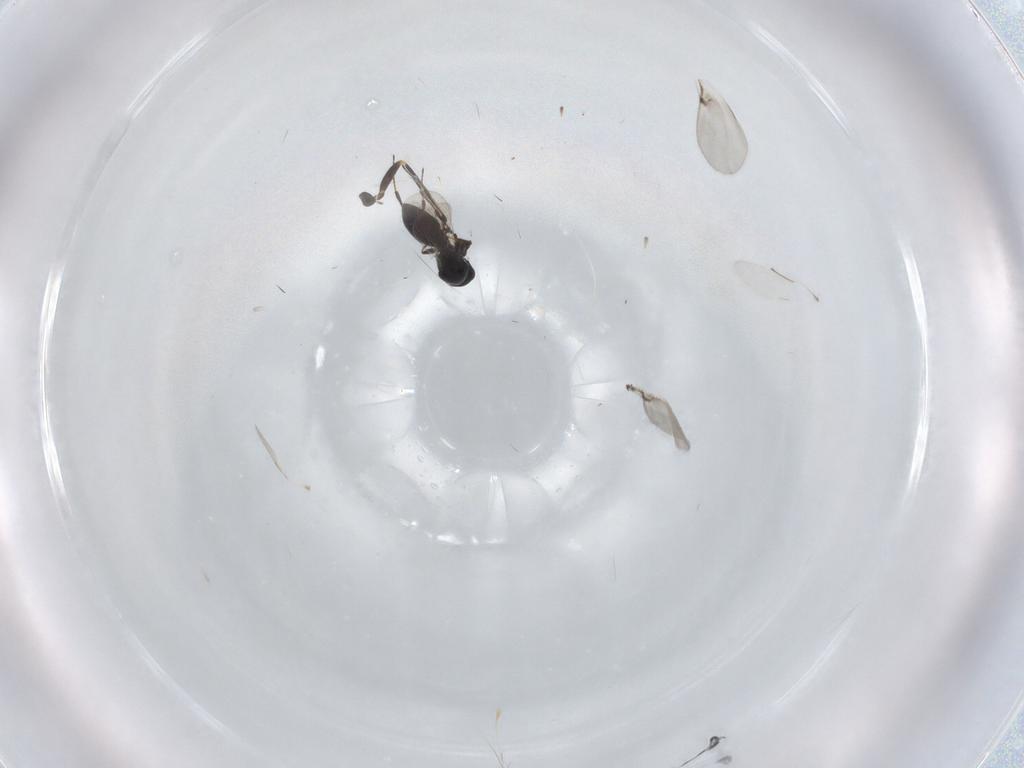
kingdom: Animalia
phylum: Arthropoda
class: Insecta
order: Hymenoptera
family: Platygastridae
